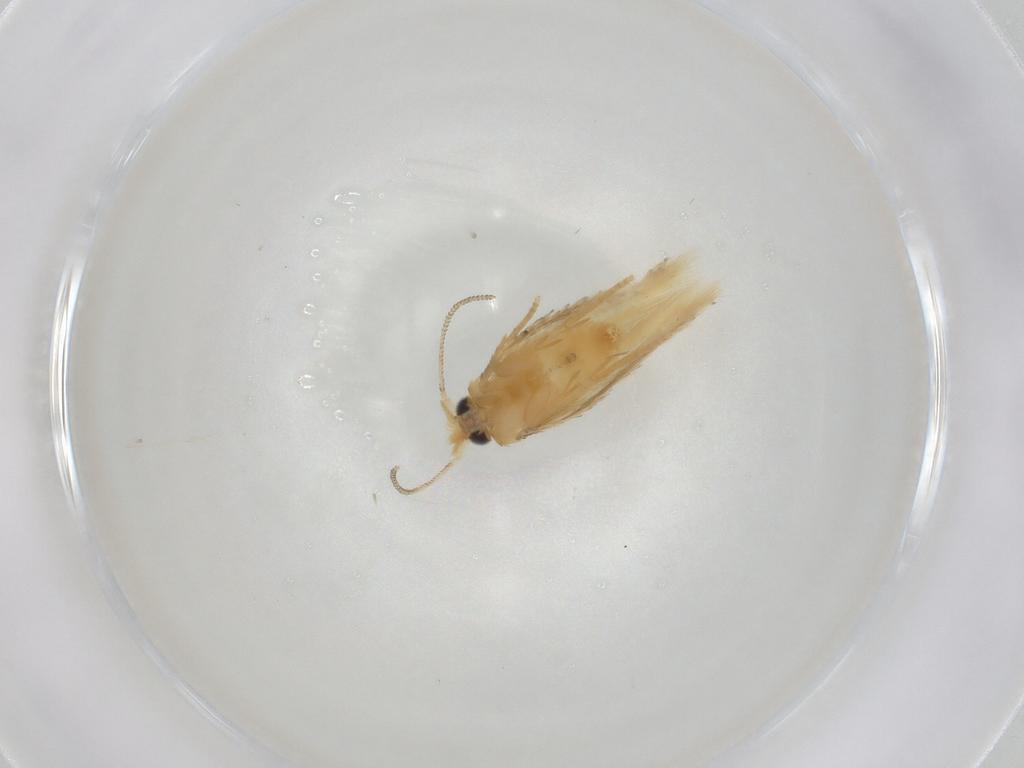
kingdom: Animalia
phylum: Arthropoda
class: Insecta
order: Lepidoptera
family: Nepticulidae
